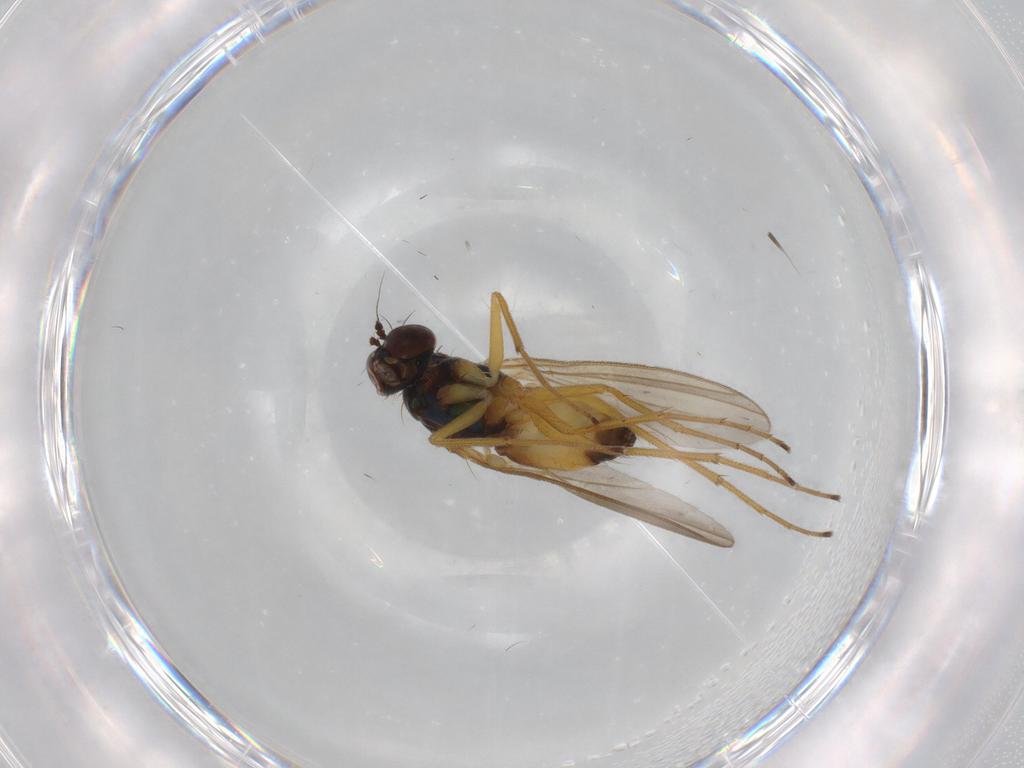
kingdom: Animalia
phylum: Arthropoda
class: Insecta
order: Diptera
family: Dolichopodidae
